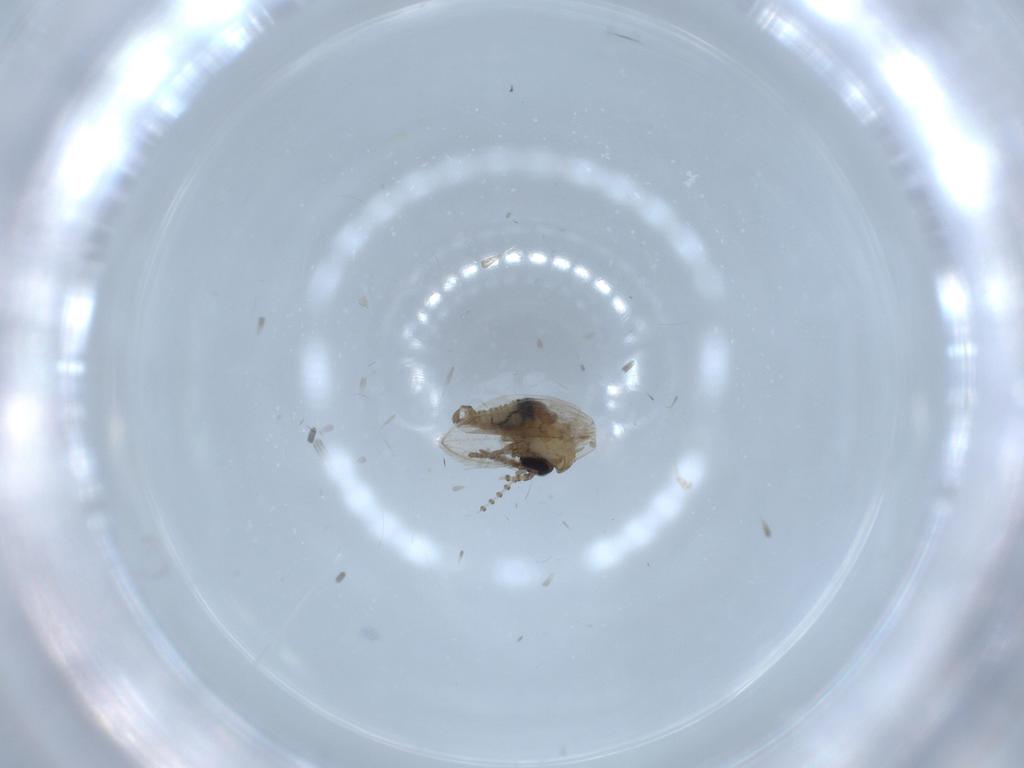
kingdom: Animalia
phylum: Arthropoda
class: Insecta
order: Diptera
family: Psychodidae
